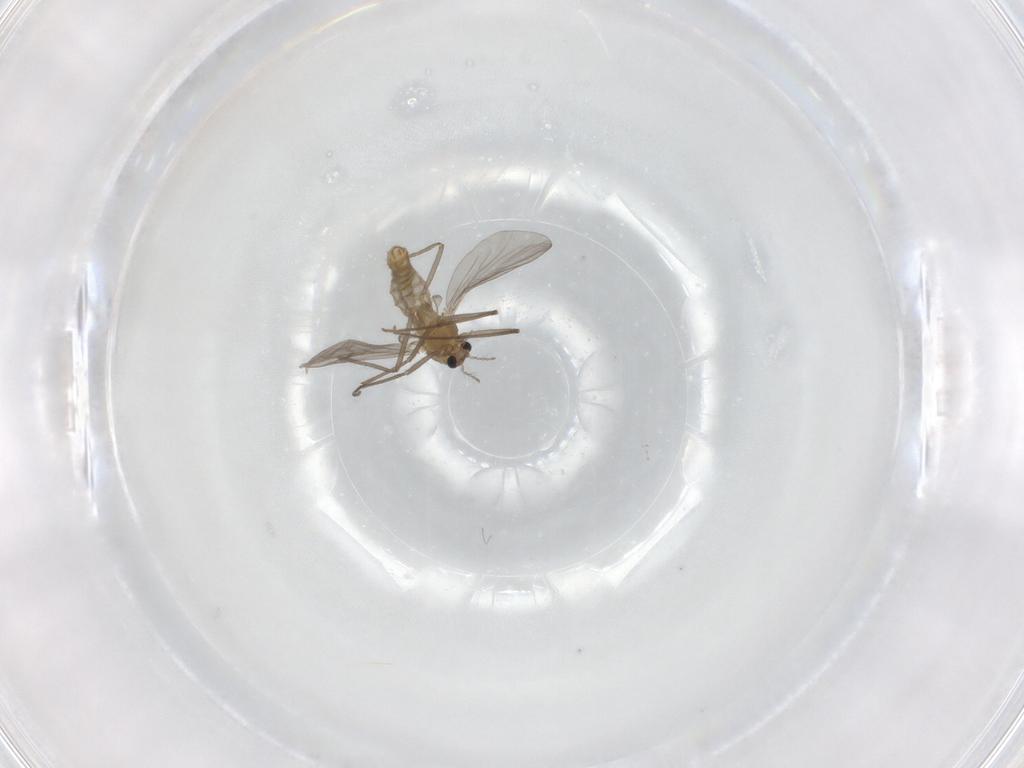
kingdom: Animalia
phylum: Arthropoda
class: Insecta
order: Diptera
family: Chironomidae
